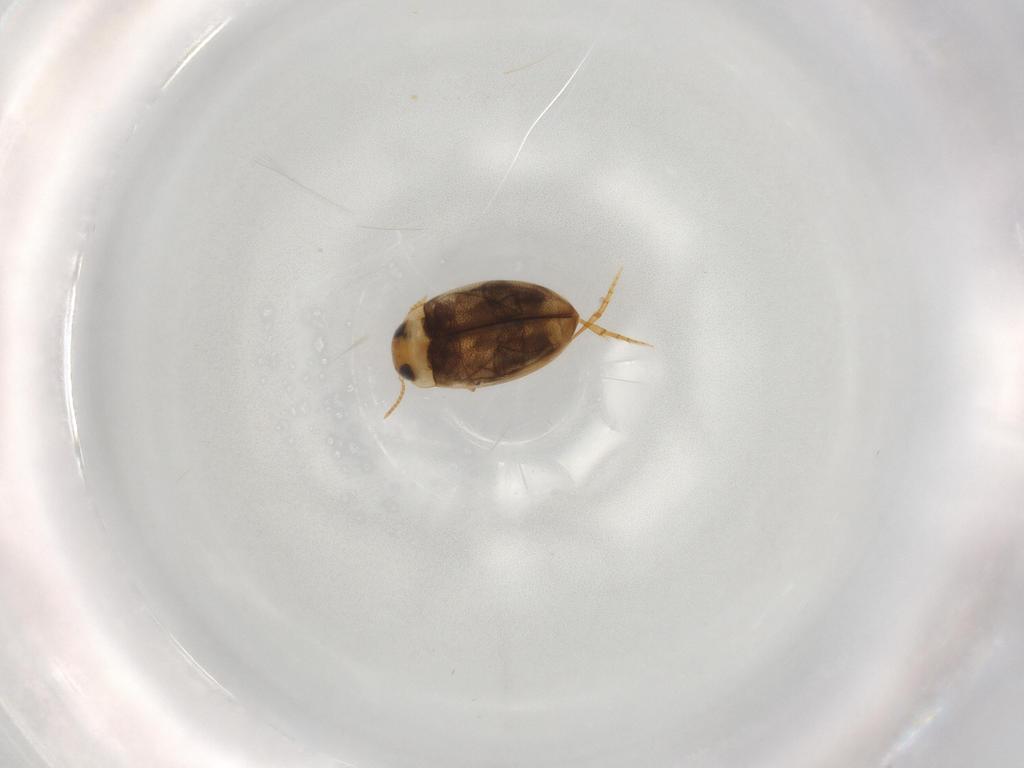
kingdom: Animalia
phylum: Arthropoda
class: Insecta
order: Coleoptera
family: Dytiscidae
